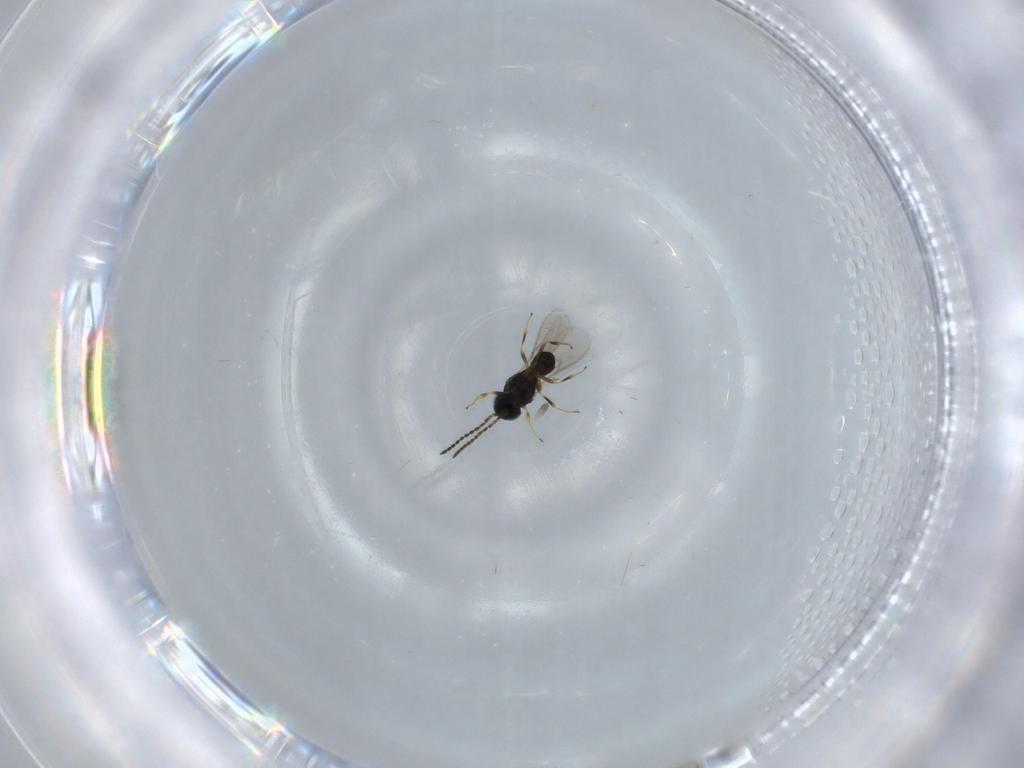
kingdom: Animalia
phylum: Arthropoda
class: Insecta
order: Hymenoptera
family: Scelionidae
